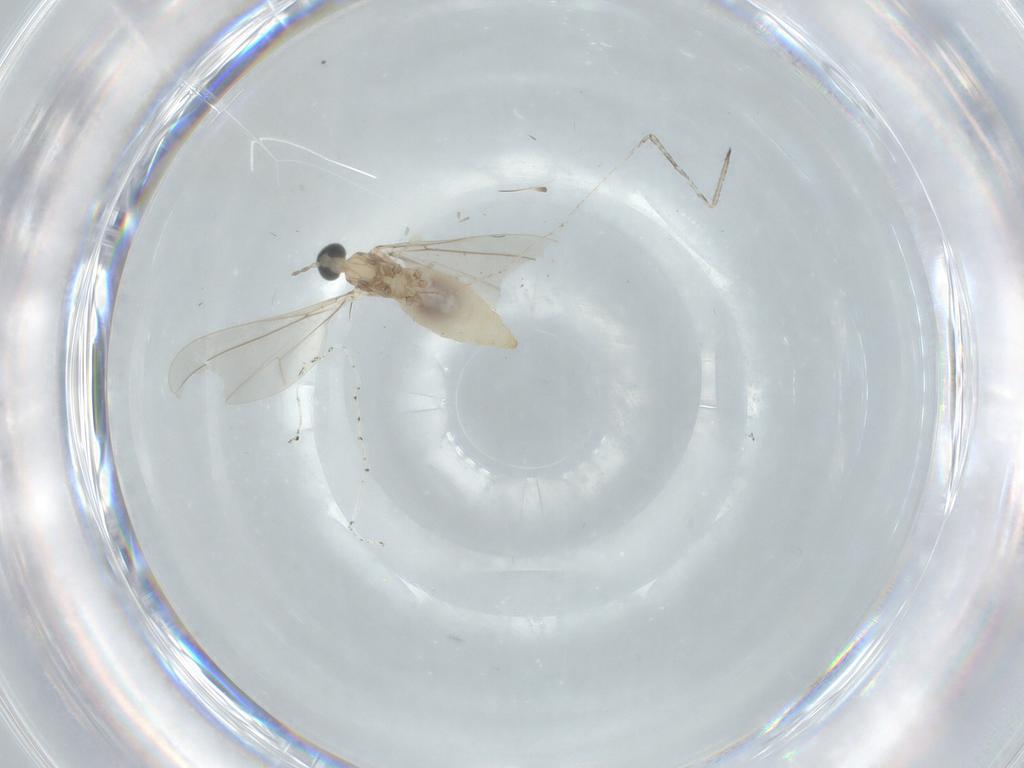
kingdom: Animalia
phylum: Arthropoda
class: Insecta
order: Diptera
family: Cecidomyiidae
